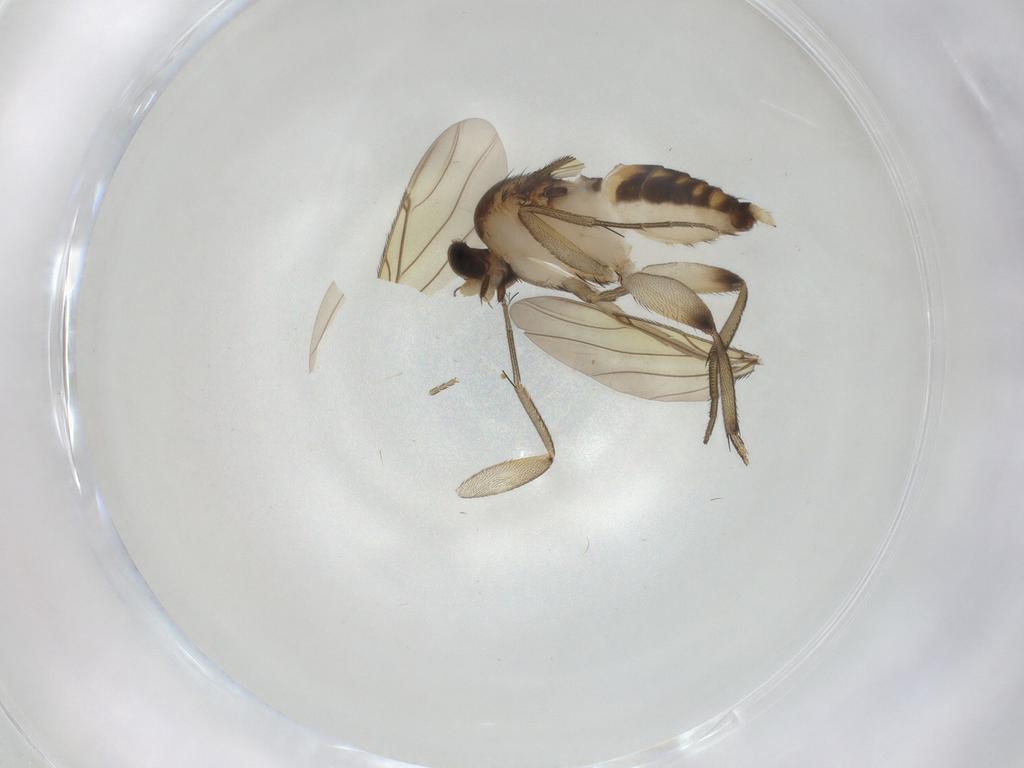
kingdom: Animalia
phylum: Arthropoda
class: Insecta
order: Diptera
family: Phoridae
